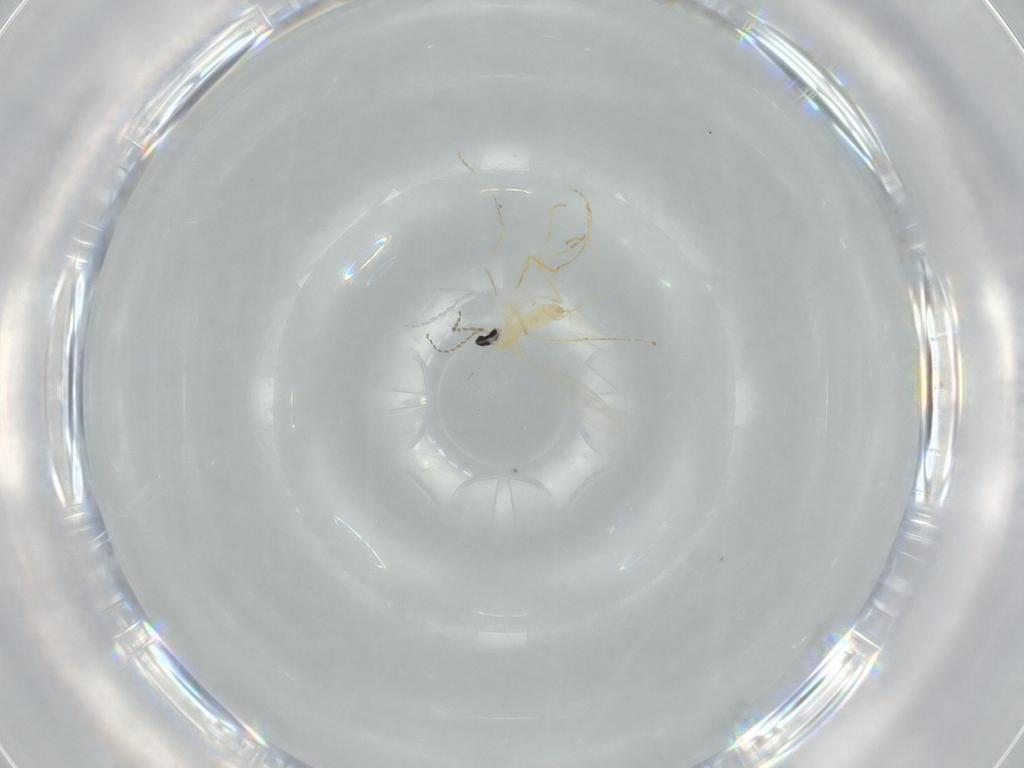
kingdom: Animalia
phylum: Arthropoda
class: Insecta
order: Diptera
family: Cecidomyiidae
